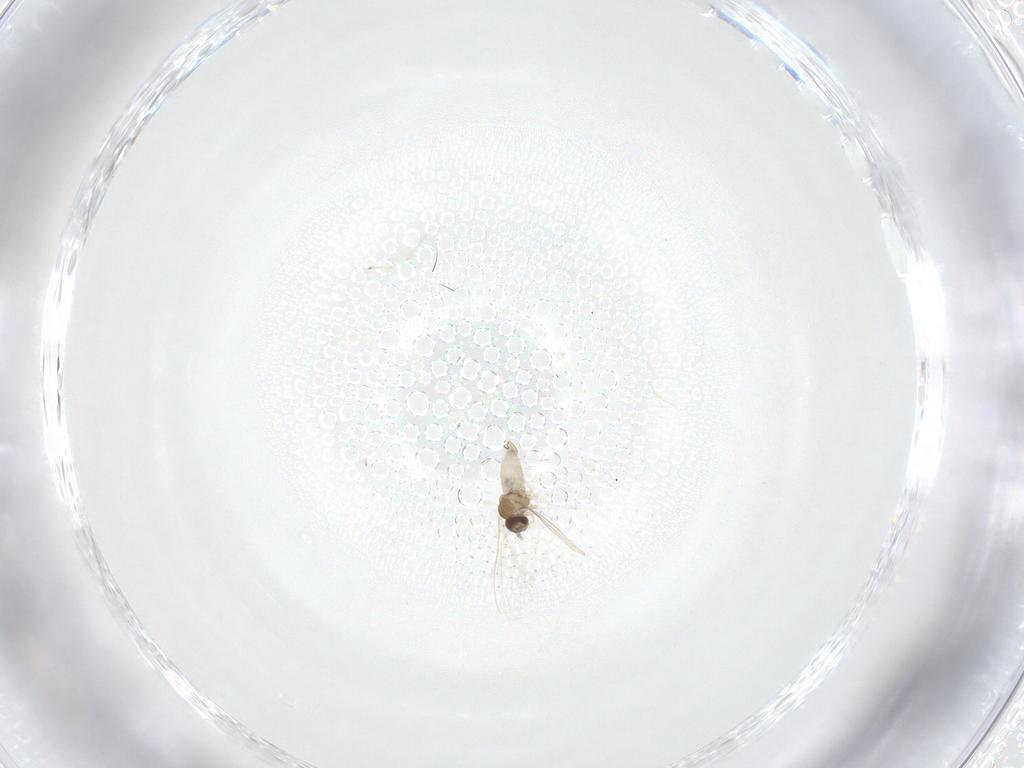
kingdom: Animalia
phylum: Arthropoda
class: Insecta
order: Diptera
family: Cecidomyiidae
